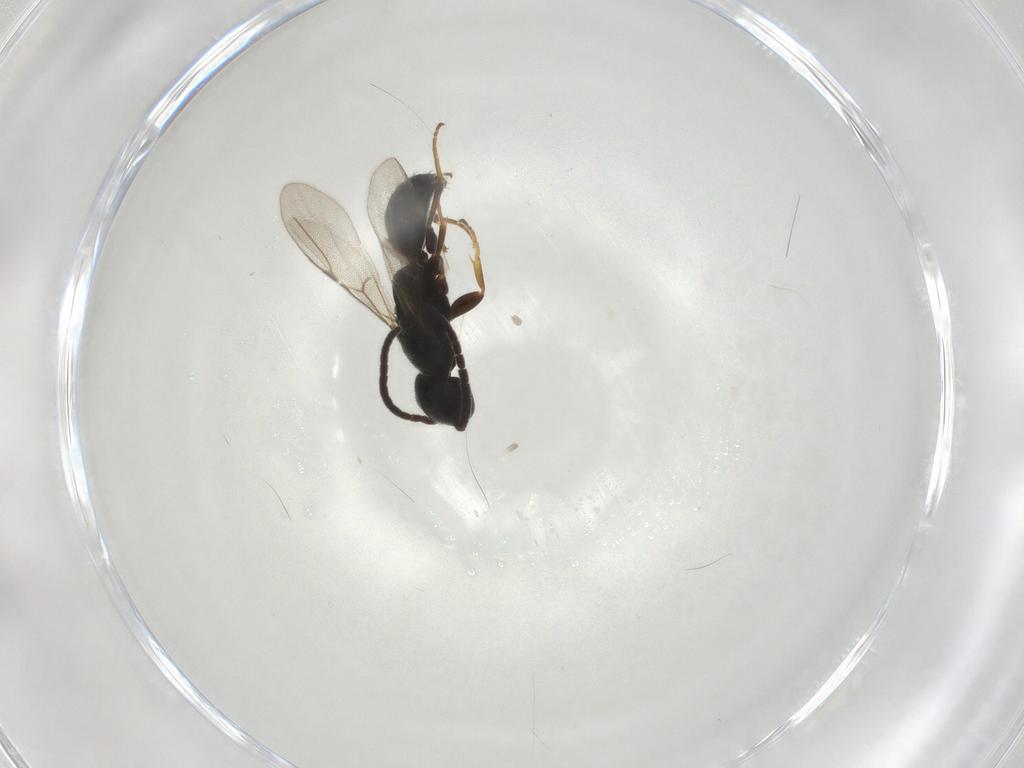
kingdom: Animalia
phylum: Arthropoda
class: Insecta
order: Hymenoptera
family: Bethylidae
